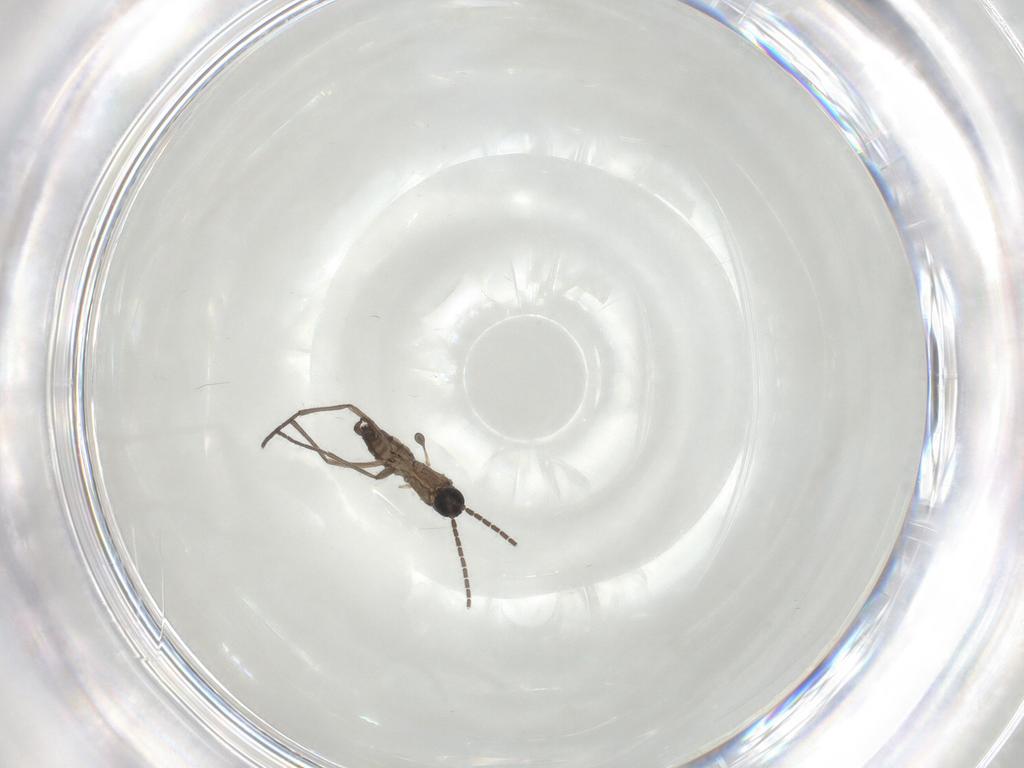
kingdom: Animalia
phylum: Arthropoda
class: Insecta
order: Diptera
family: Sciaridae
